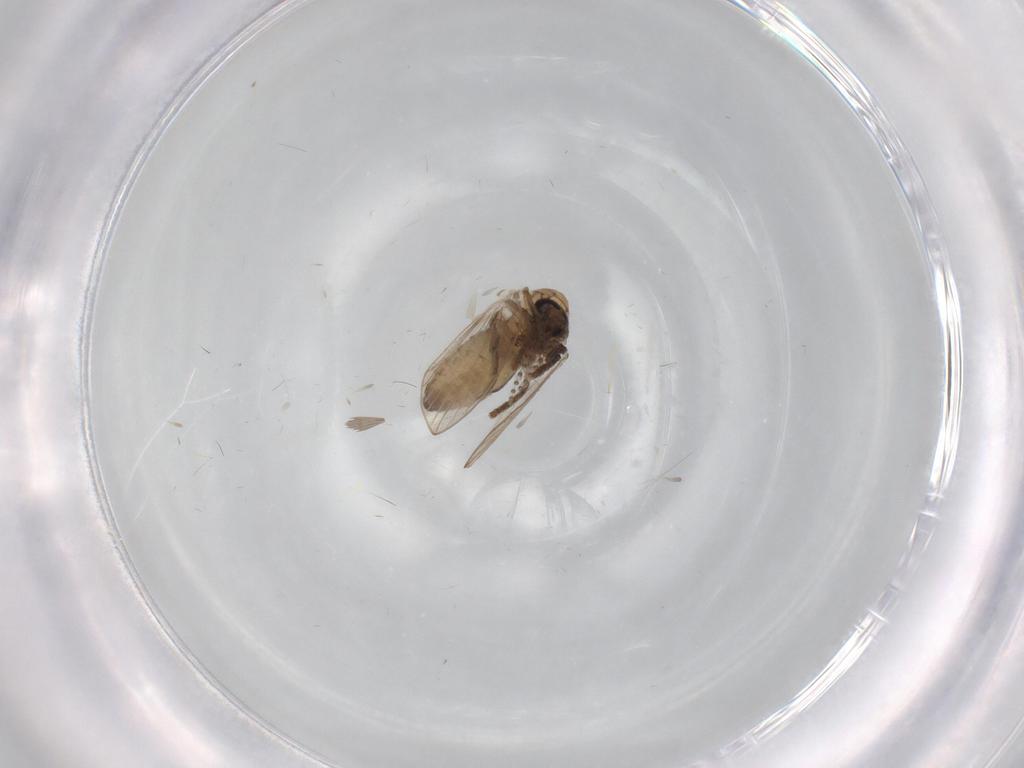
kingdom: Animalia
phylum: Arthropoda
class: Insecta
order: Diptera
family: Psychodidae
